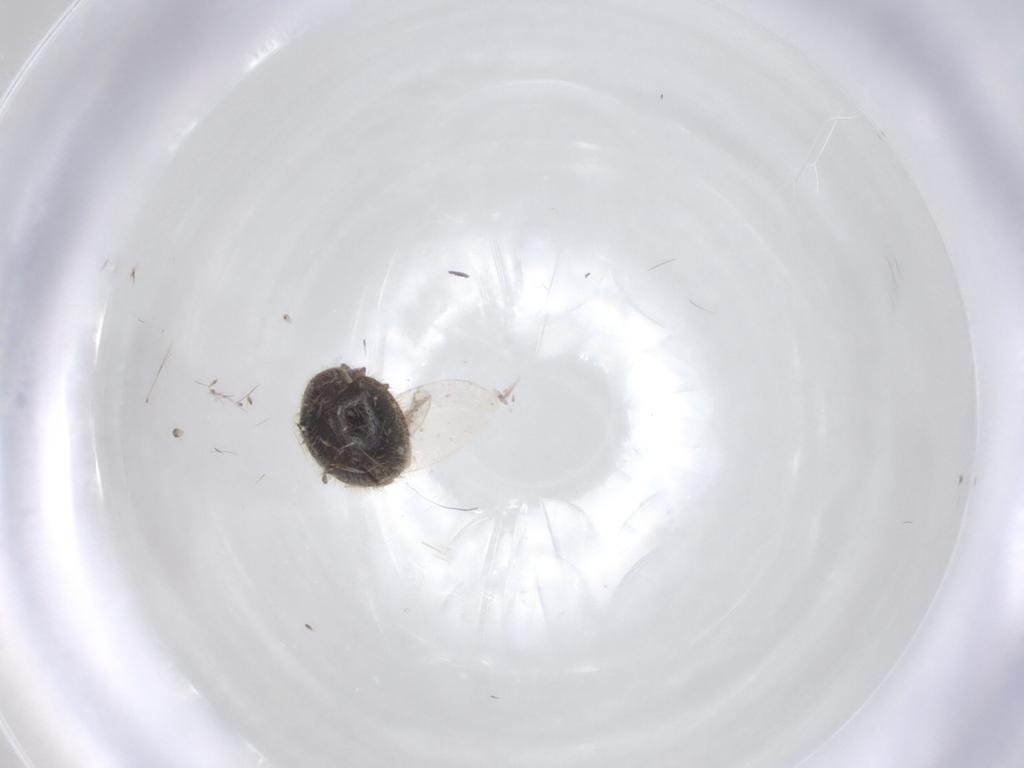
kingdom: Animalia
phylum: Arthropoda
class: Insecta
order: Coleoptera
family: Coccinellidae
